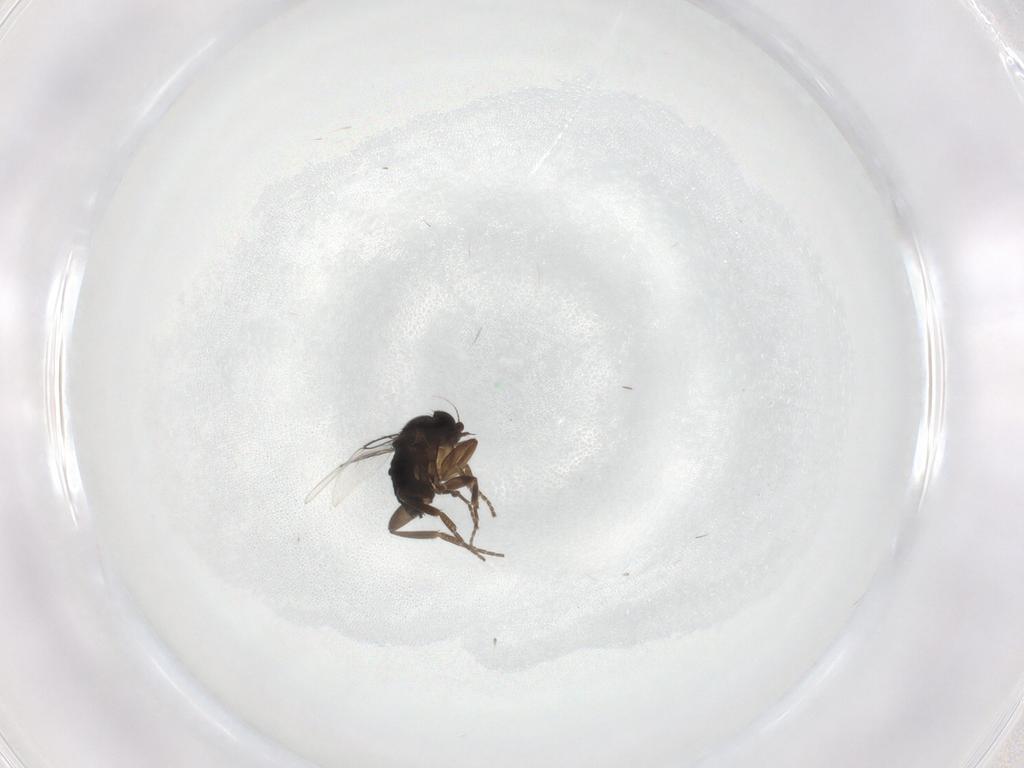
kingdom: Animalia
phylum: Arthropoda
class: Insecta
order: Diptera
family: Phoridae
